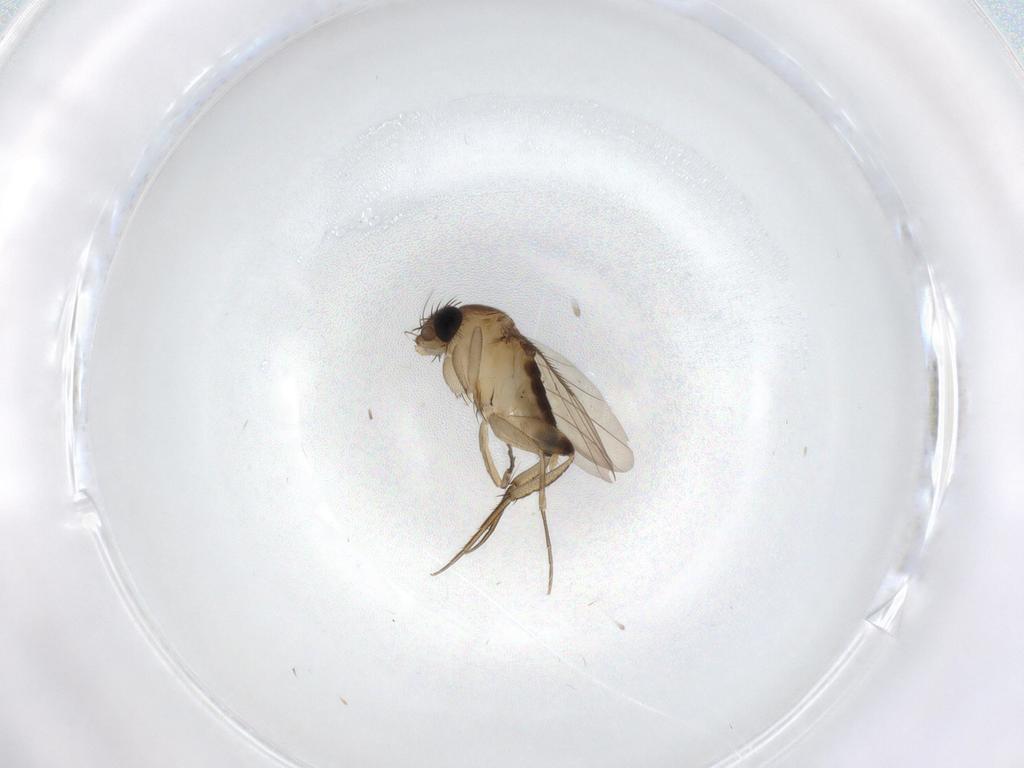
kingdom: Animalia
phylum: Arthropoda
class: Insecta
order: Diptera
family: Phoridae
